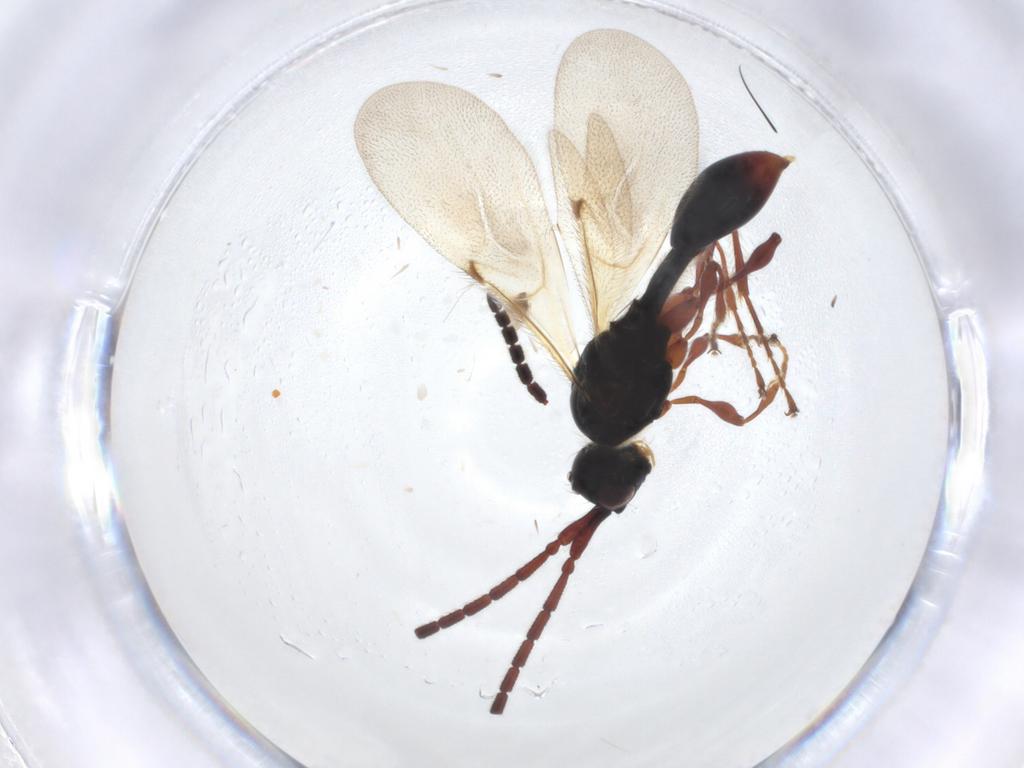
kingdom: Animalia
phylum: Arthropoda
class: Insecta
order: Hymenoptera
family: Diapriidae
